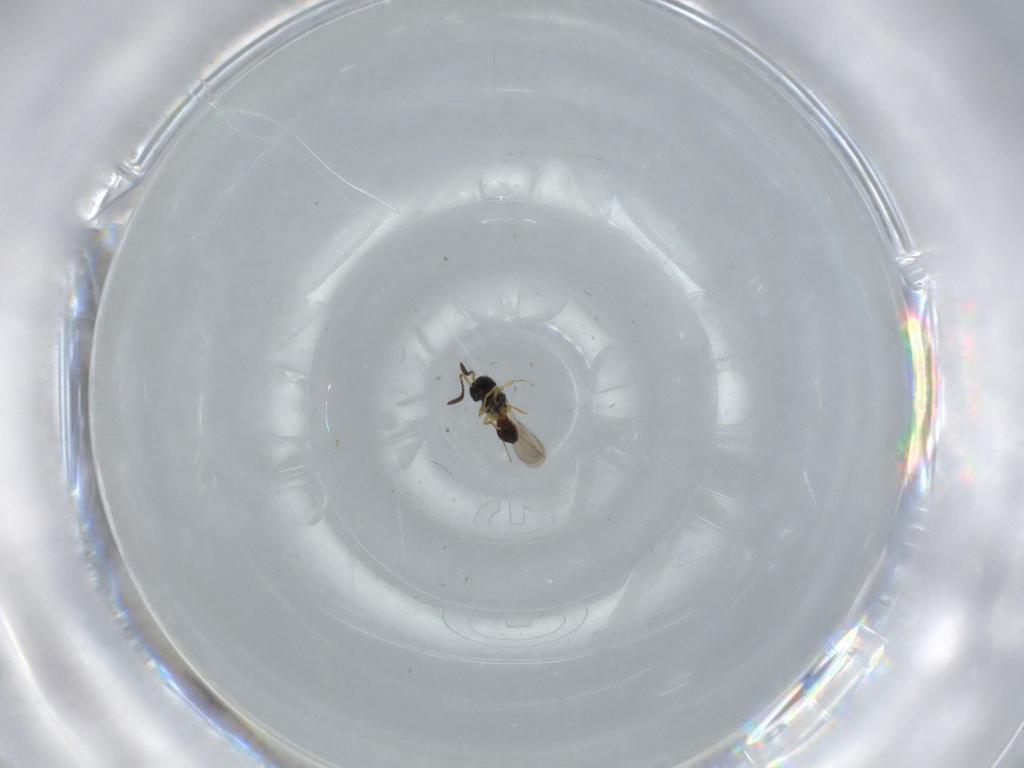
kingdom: Animalia
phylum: Arthropoda
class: Insecta
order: Hymenoptera
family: Scelionidae
